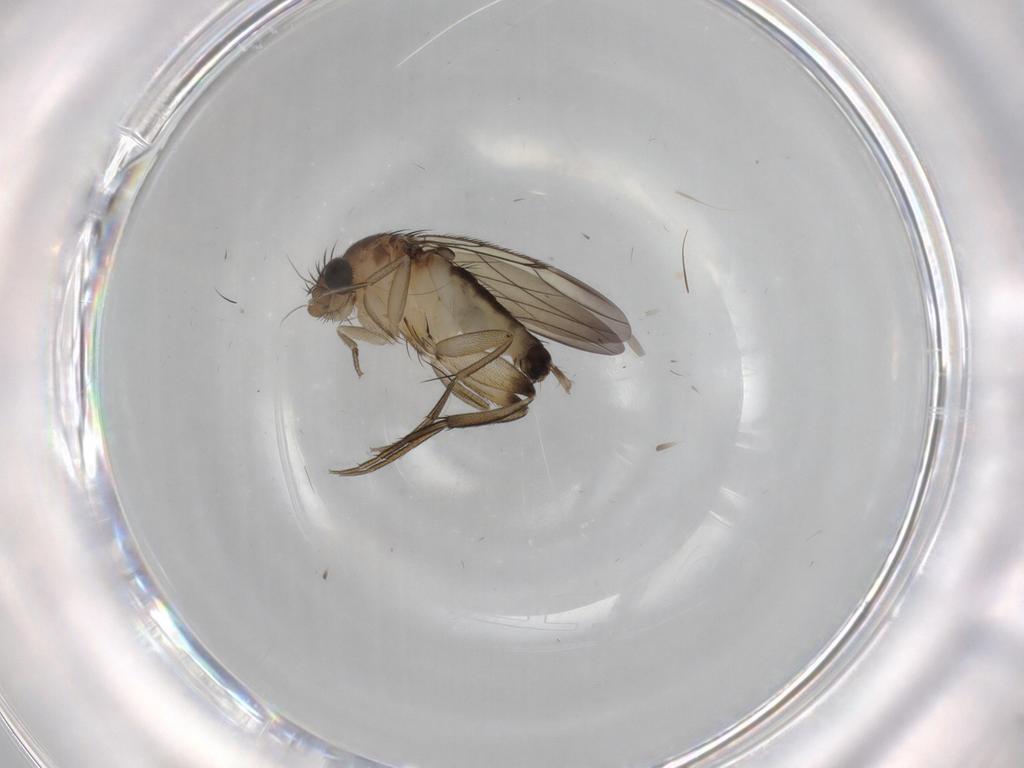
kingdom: Animalia
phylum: Arthropoda
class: Insecta
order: Diptera
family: Phoridae
